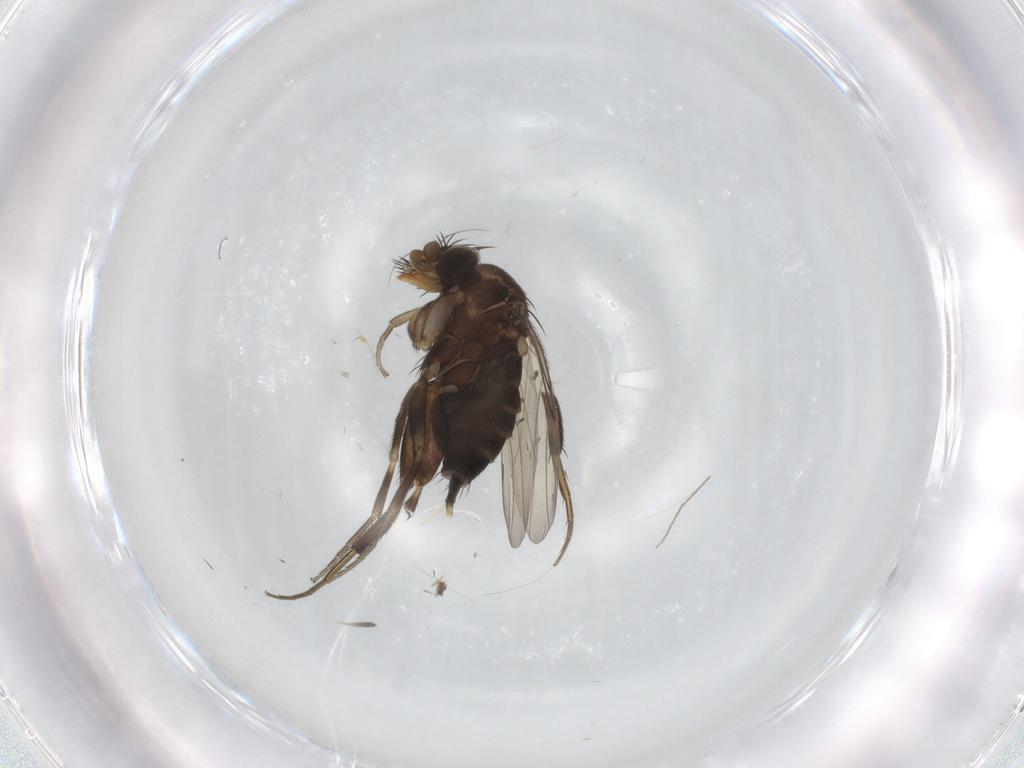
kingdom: Animalia
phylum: Arthropoda
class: Insecta
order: Diptera
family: Phoridae
